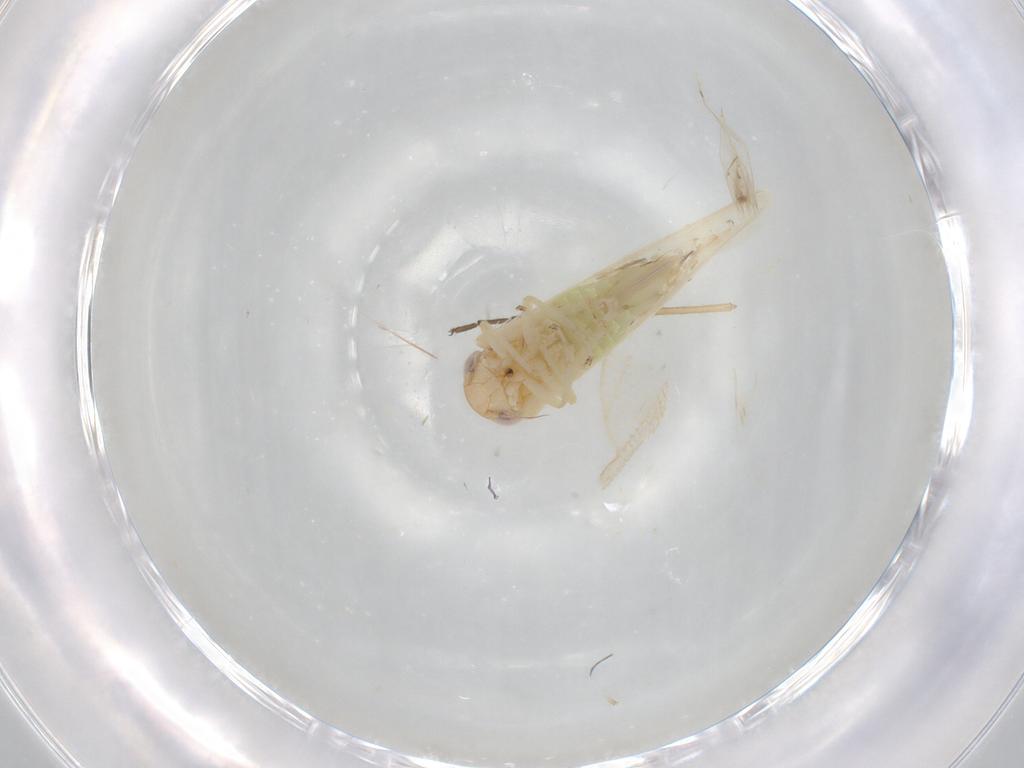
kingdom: Animalia
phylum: Arthropoda
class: Insecta
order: Hemiptera
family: Cicadellidae
